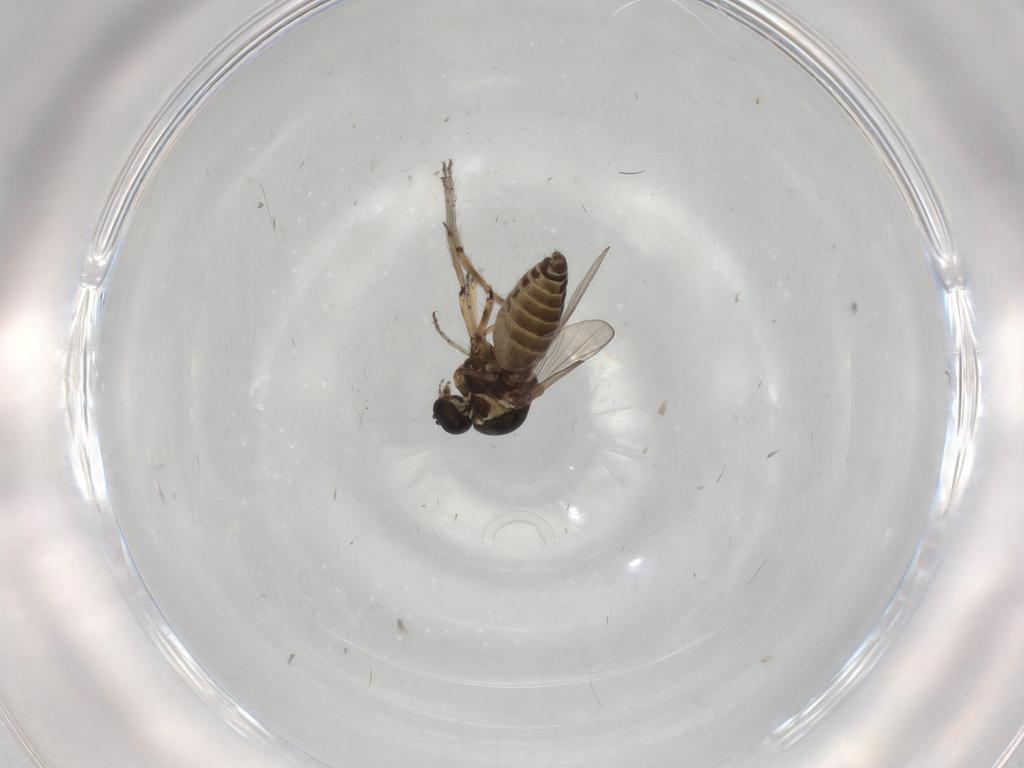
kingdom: Animalia
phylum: Arthropoda
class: Insecta
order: Diptera
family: Ceratopogonidae
